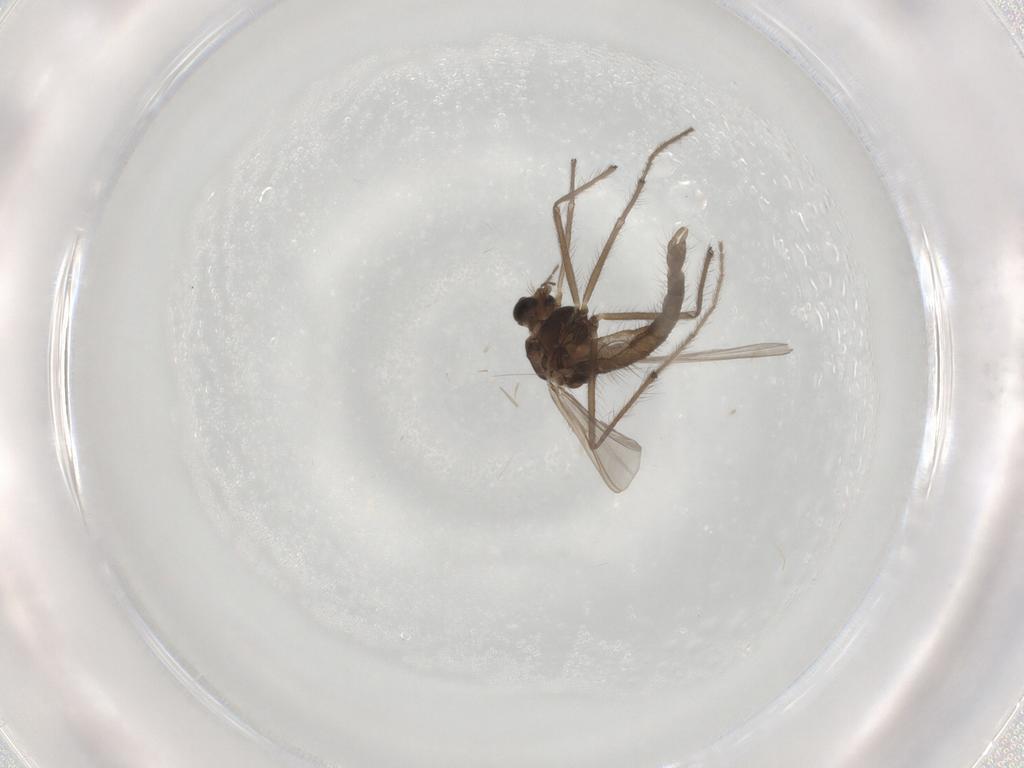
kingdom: Animalia
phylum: Arthropoda
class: Insecta
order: Diptera
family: Chironomidae
